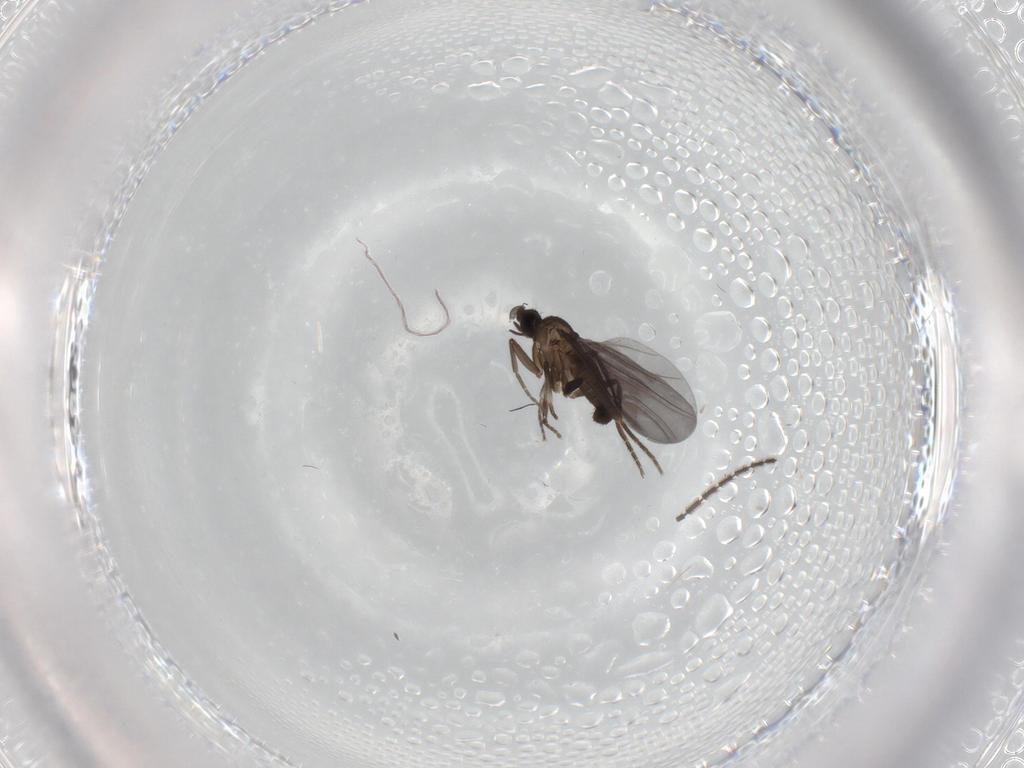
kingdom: Animalia
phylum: Arthropoda
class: Insecta
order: Diptera
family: Phoridae
